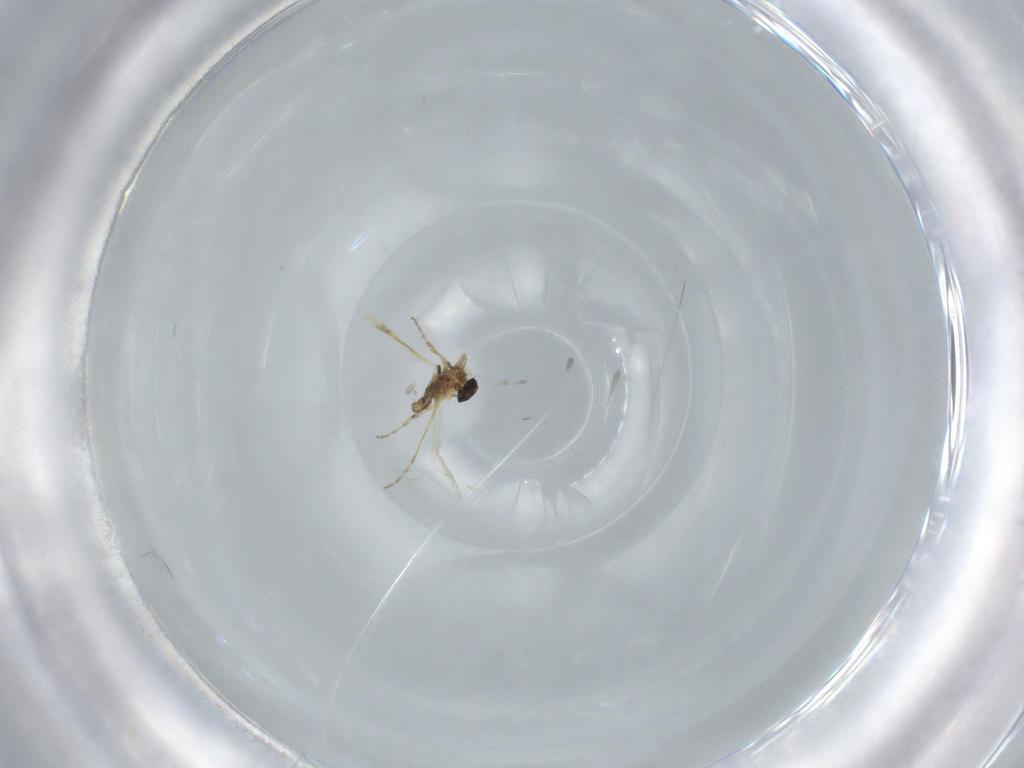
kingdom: Animalia
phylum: Arthropoda
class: Insecta
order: Diptera
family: Ceratopogonidae
